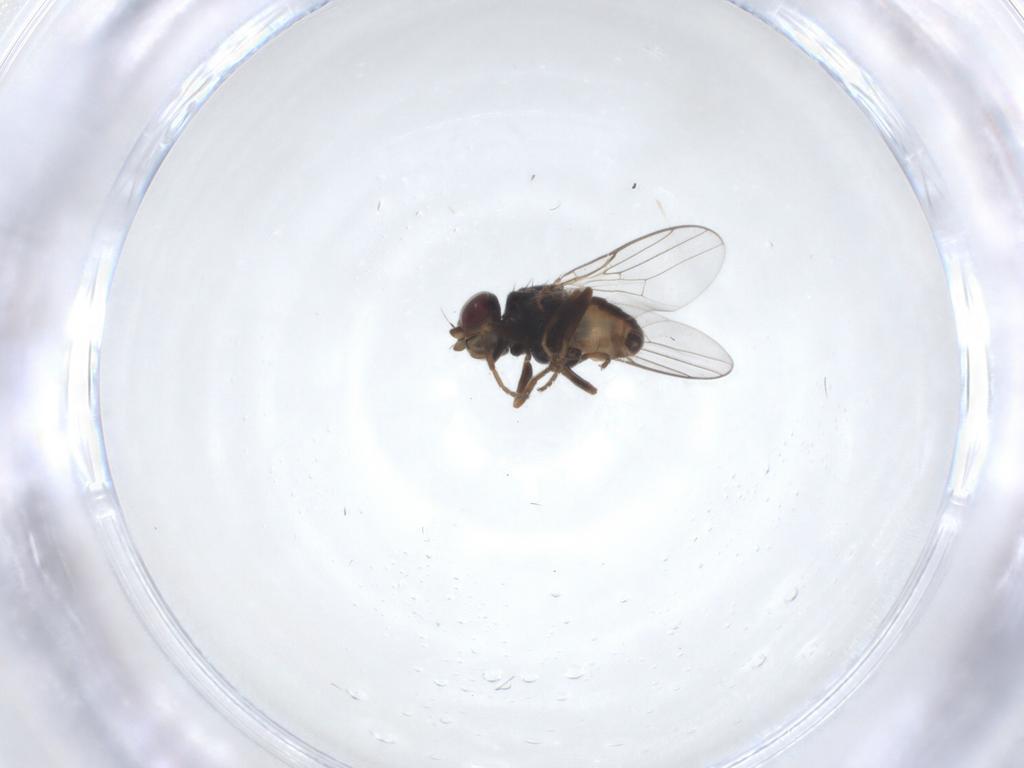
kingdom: Animalia
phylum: Arthropoda
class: Insecta
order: Diptera
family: Chloropidae
